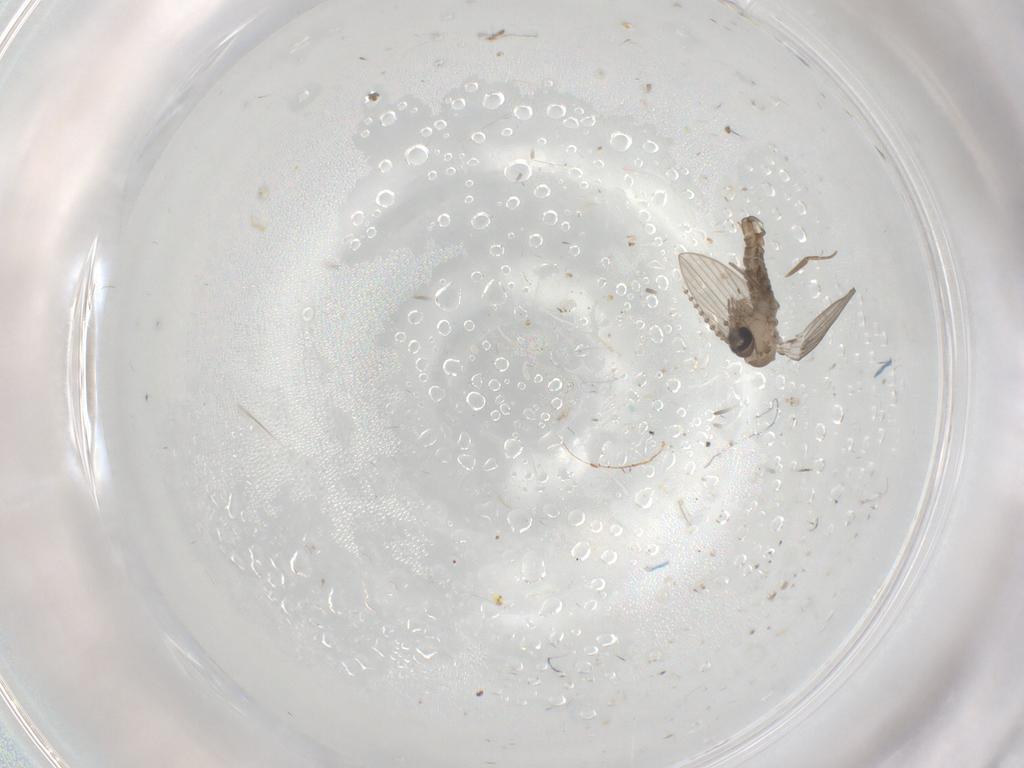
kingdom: Animalia
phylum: Arthropoda
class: Insecta
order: Diptera
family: Psychodidae
